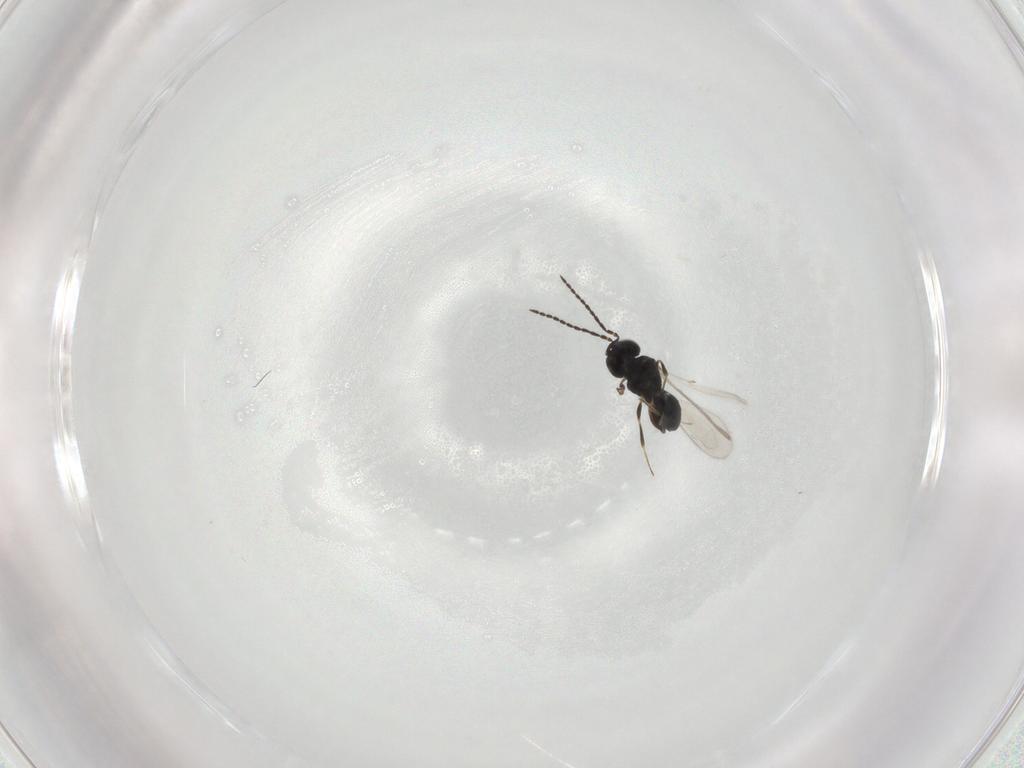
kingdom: Animalia
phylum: Arthropoda
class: Insecta
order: Hymenoptera
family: Scelionidae
